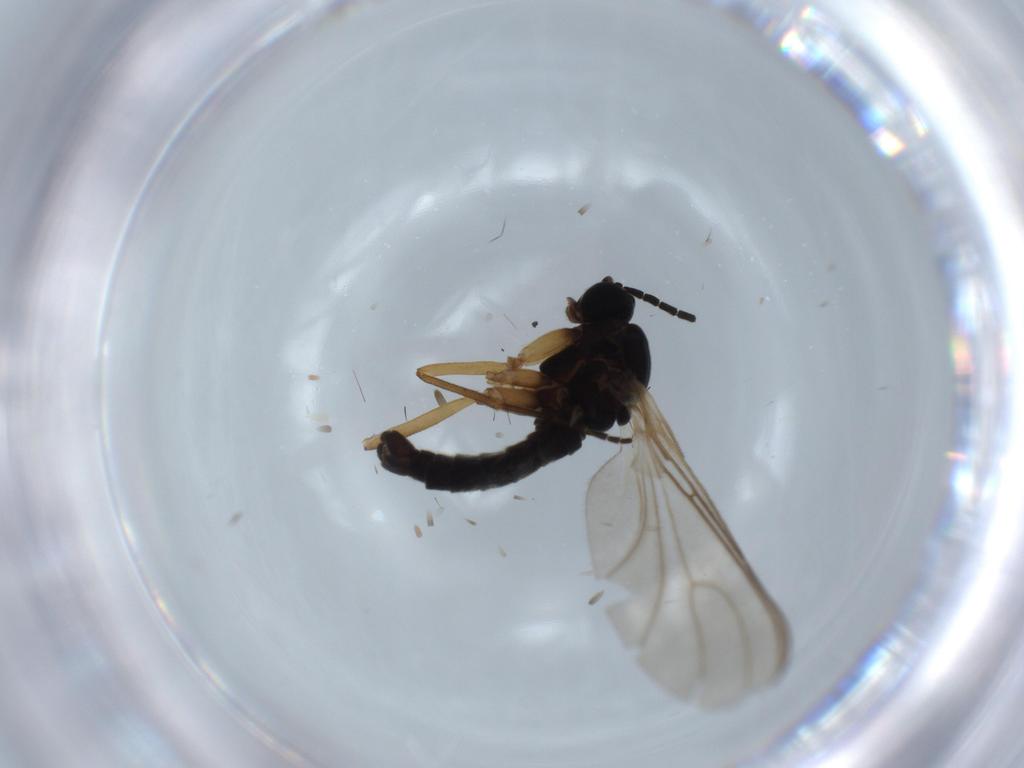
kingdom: Animalia
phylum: Arthropoda
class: Insecta
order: Diptera
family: Sciaridae
